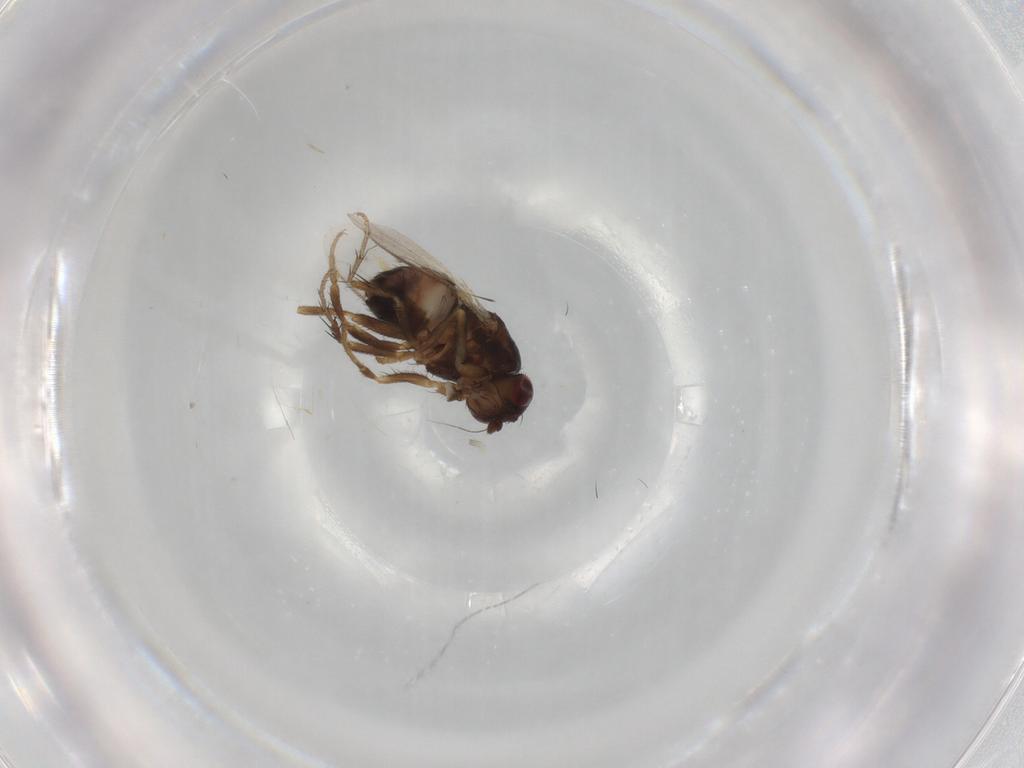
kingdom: Animalia
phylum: Arthropoda
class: Insecta
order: Diptera
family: Sphaeroceridae
